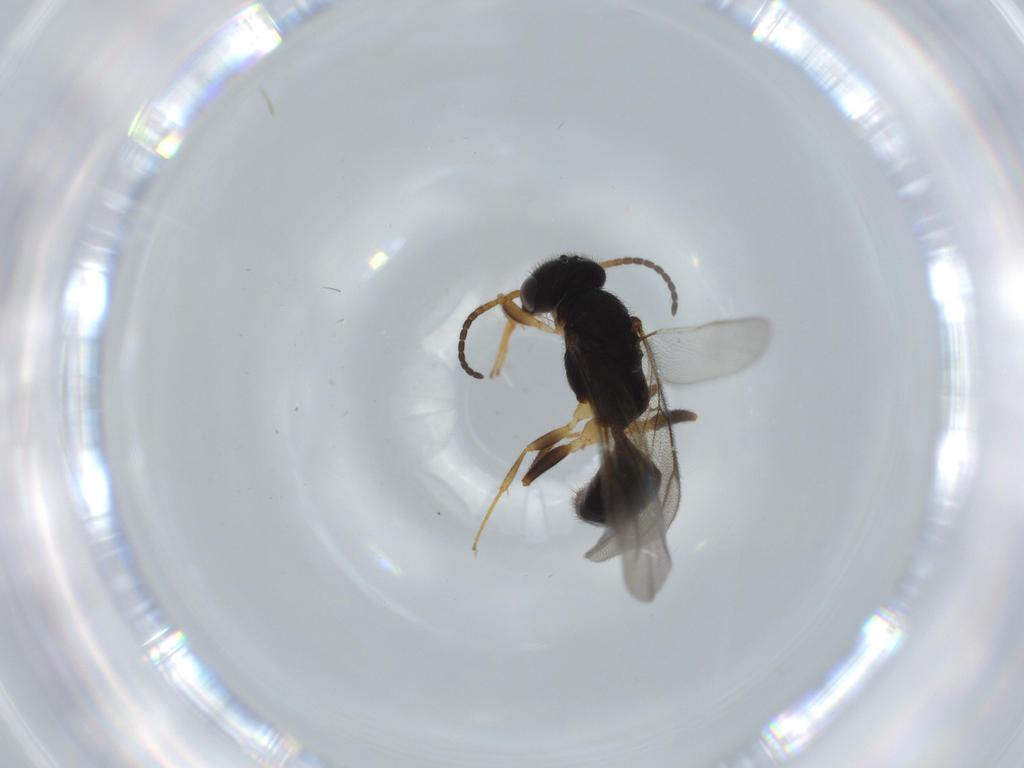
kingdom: Animalia
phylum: Arthropoda
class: Insecta
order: Hymenoptera
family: Bethylidae
